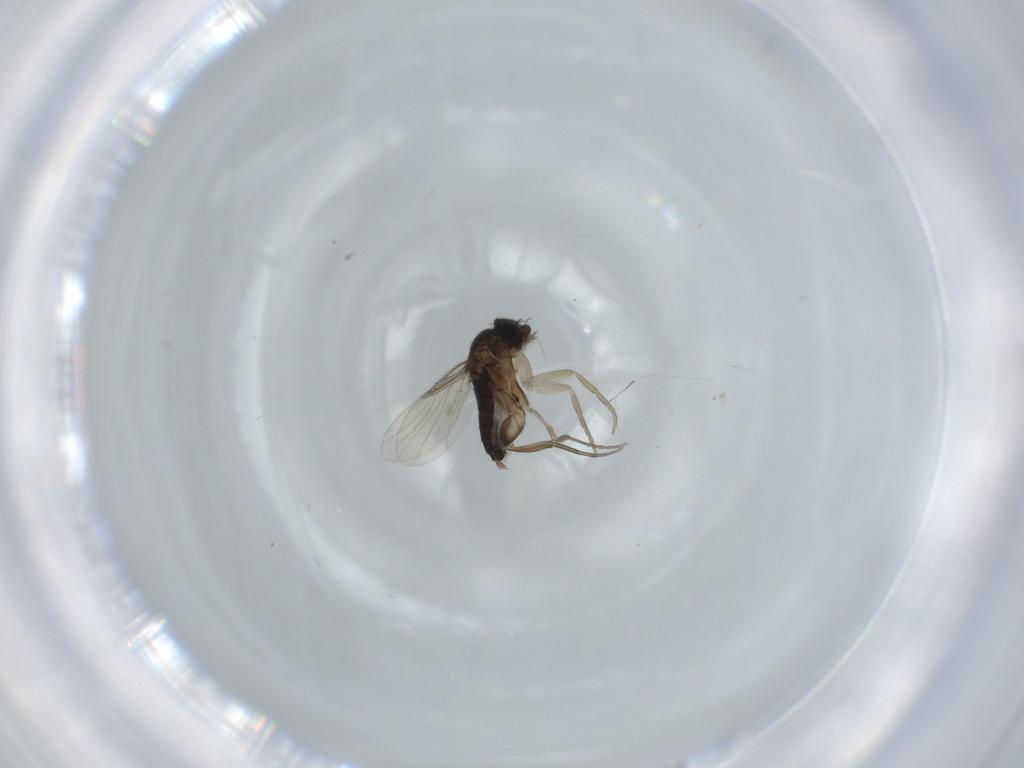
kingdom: Animalia
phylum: Arthropoda
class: Insecta
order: Diptera
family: Phoridae
